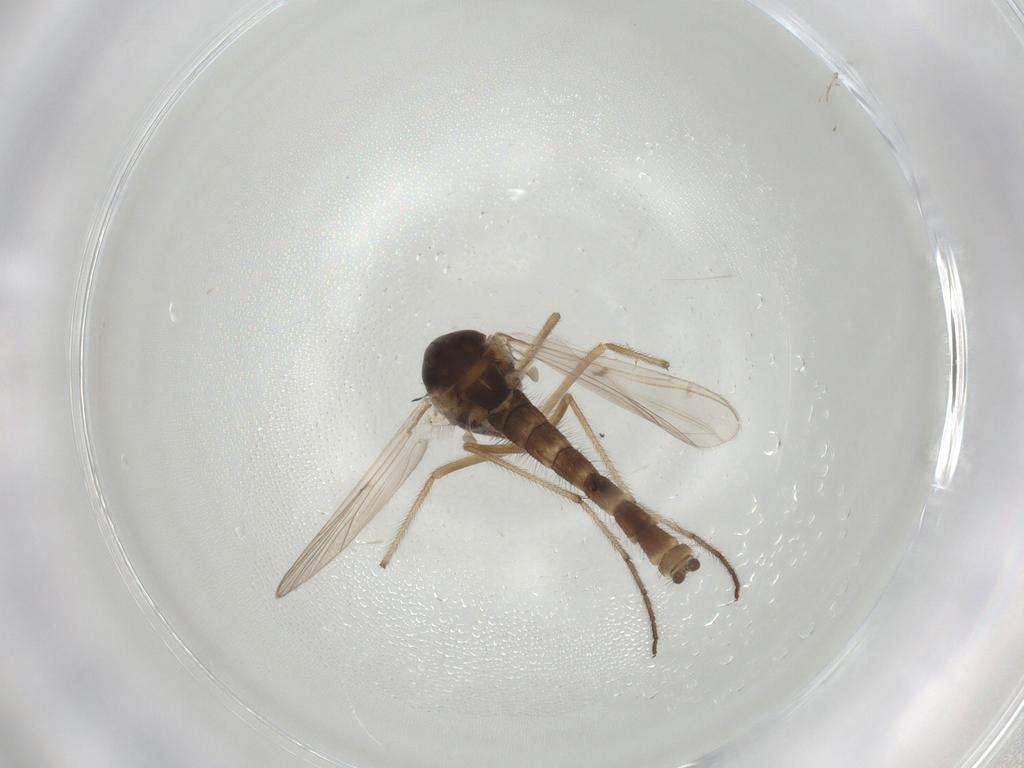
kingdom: Animalia
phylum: Arthropoda
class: Insecta
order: Diptera
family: Chironomidae
